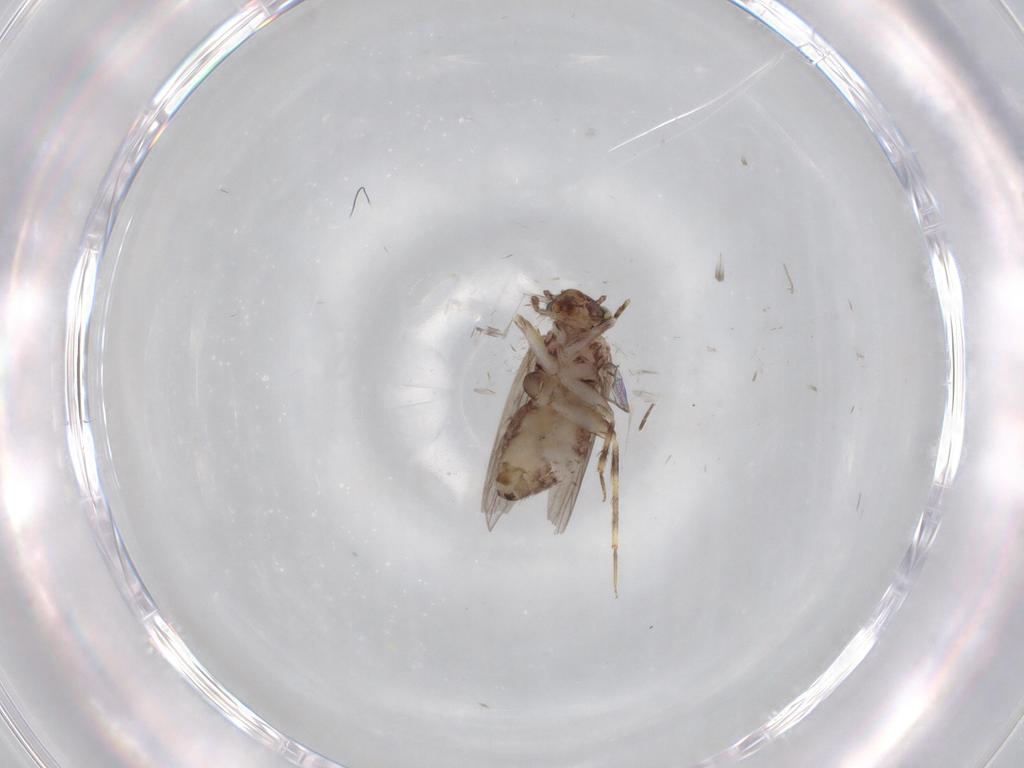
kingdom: Animalia
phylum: Arthropoda
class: Insecta
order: Psocodea
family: Lepidopsocidae
